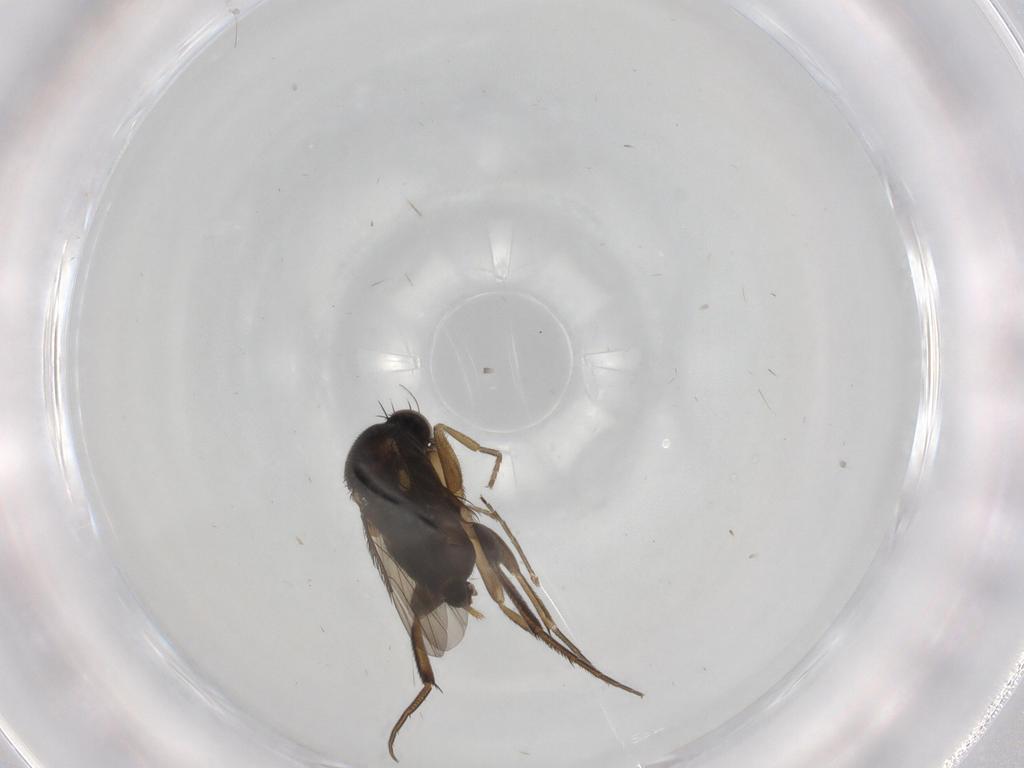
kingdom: Animalia
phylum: Arthropoda
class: Insecta
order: Diptera
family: Phoridae
